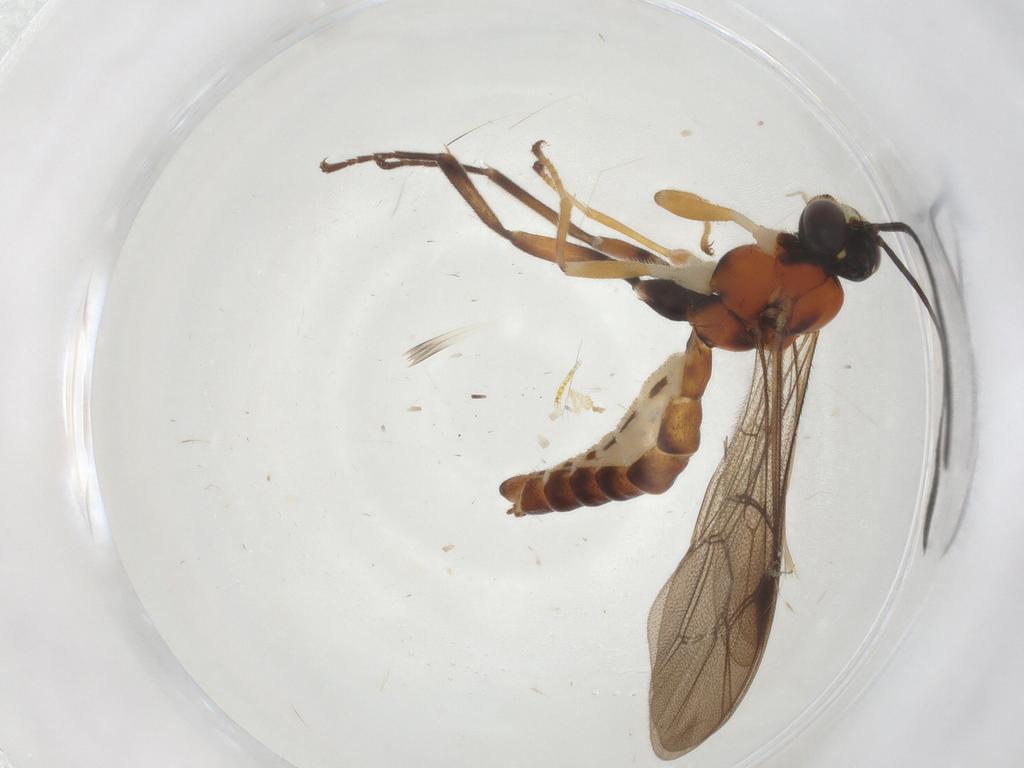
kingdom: Animalia
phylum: Arthropoda
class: Insecta
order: Hymenoptera
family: Ichneumonidae
